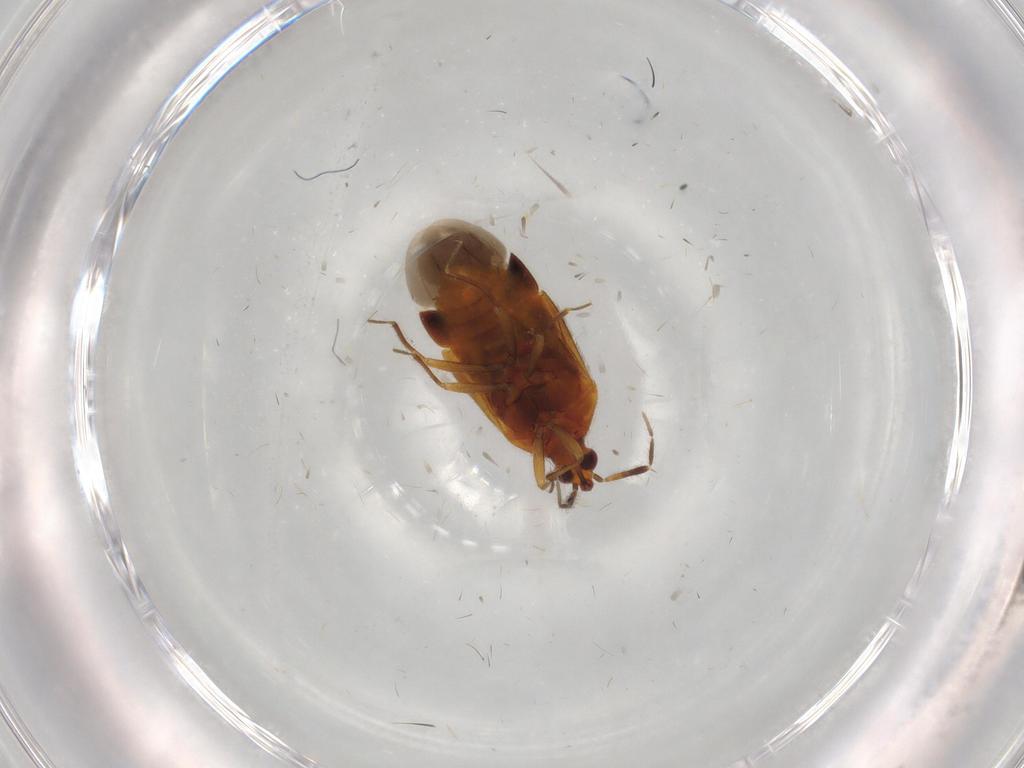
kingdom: Animalia
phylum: Arthropoda
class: Insecta
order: Hemiptera
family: Anthocoridae
